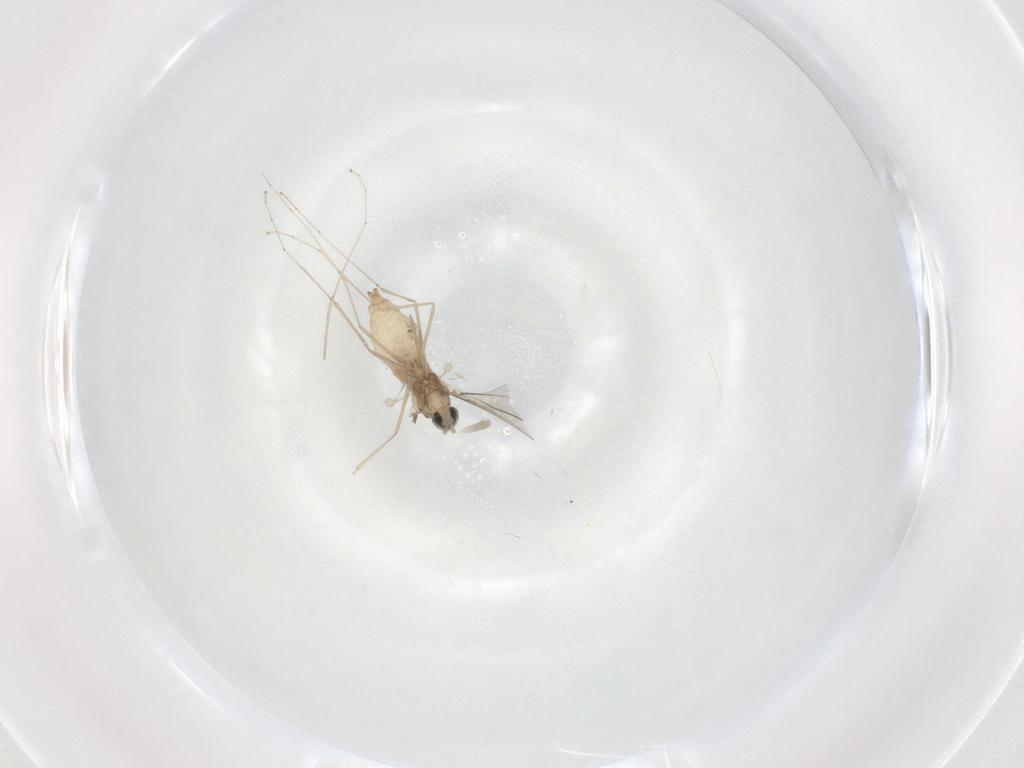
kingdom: Animalia
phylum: Arthropoda
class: Insecta
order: Diptera
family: Cecidomyiidae
